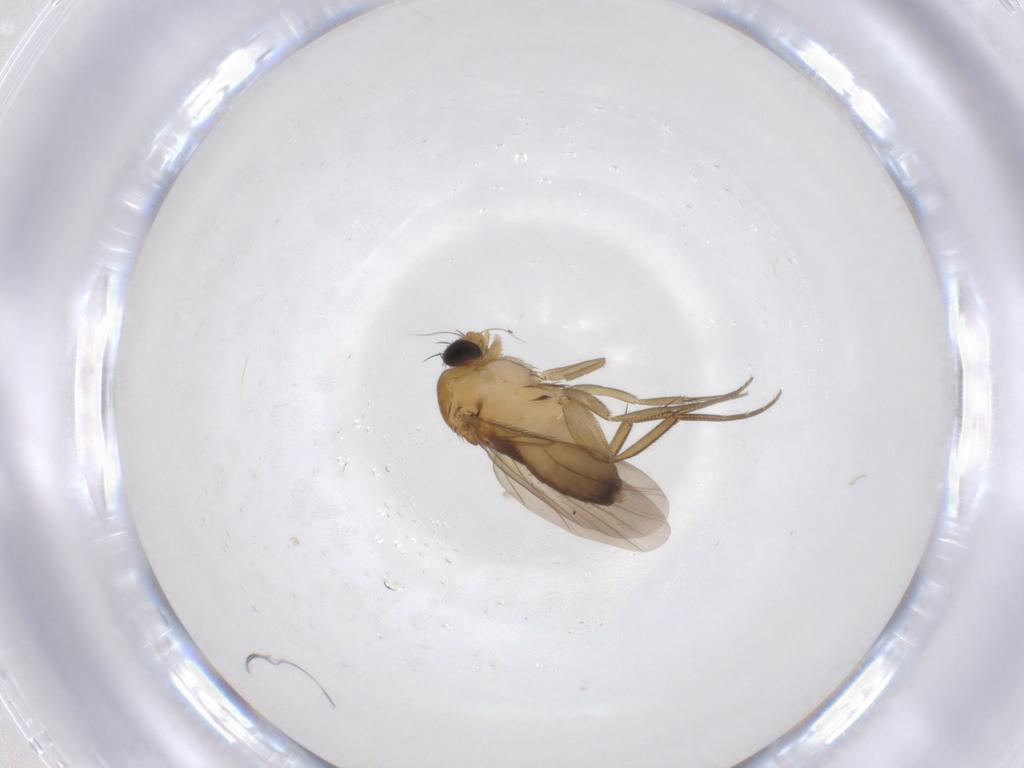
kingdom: Animalia
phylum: Arthropoda
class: Insecta
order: Diptera
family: Phoridae
